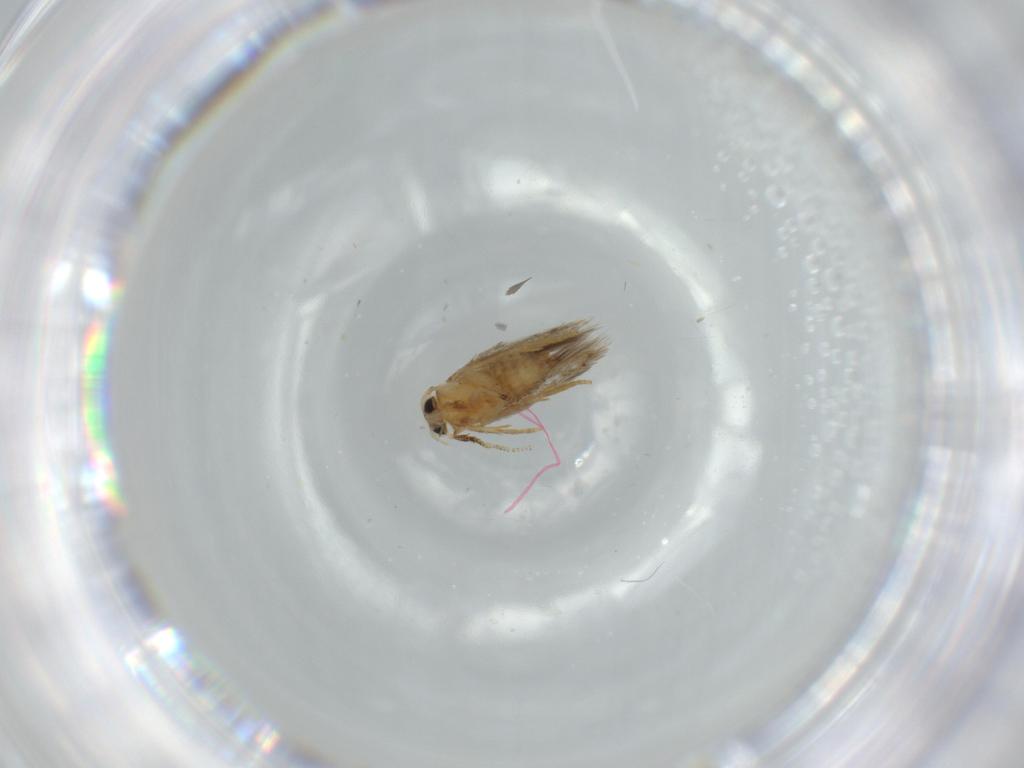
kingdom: Animalia
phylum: Arthropoda
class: Insecta
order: Lepidoptera
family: Nepticulidae
